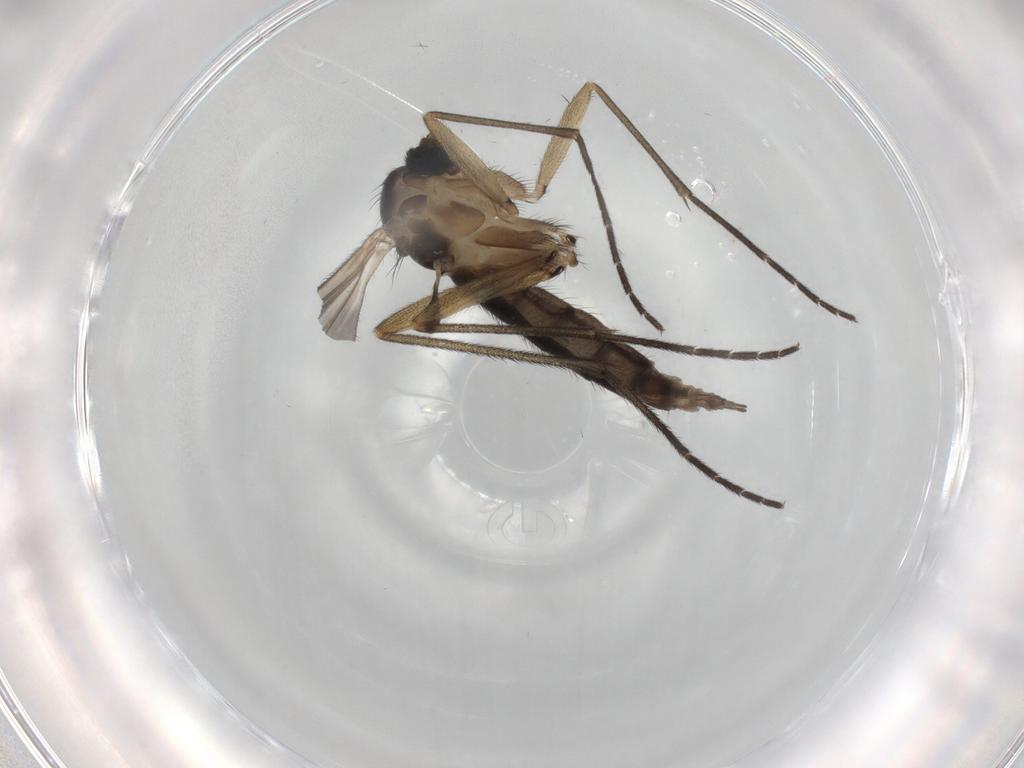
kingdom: Animalia
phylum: Arthropoda
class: Insecta
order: Diptera
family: Sciaridae
